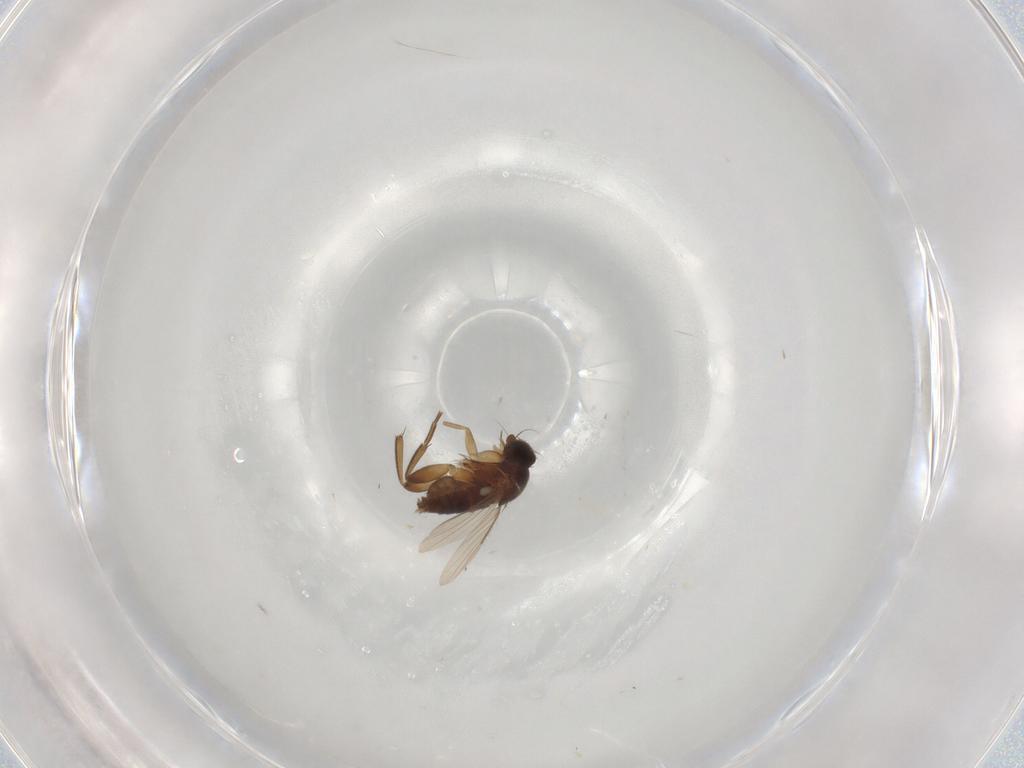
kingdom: Animalia
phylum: Arthropoda
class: Insecta
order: Diptera
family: Phoridae
